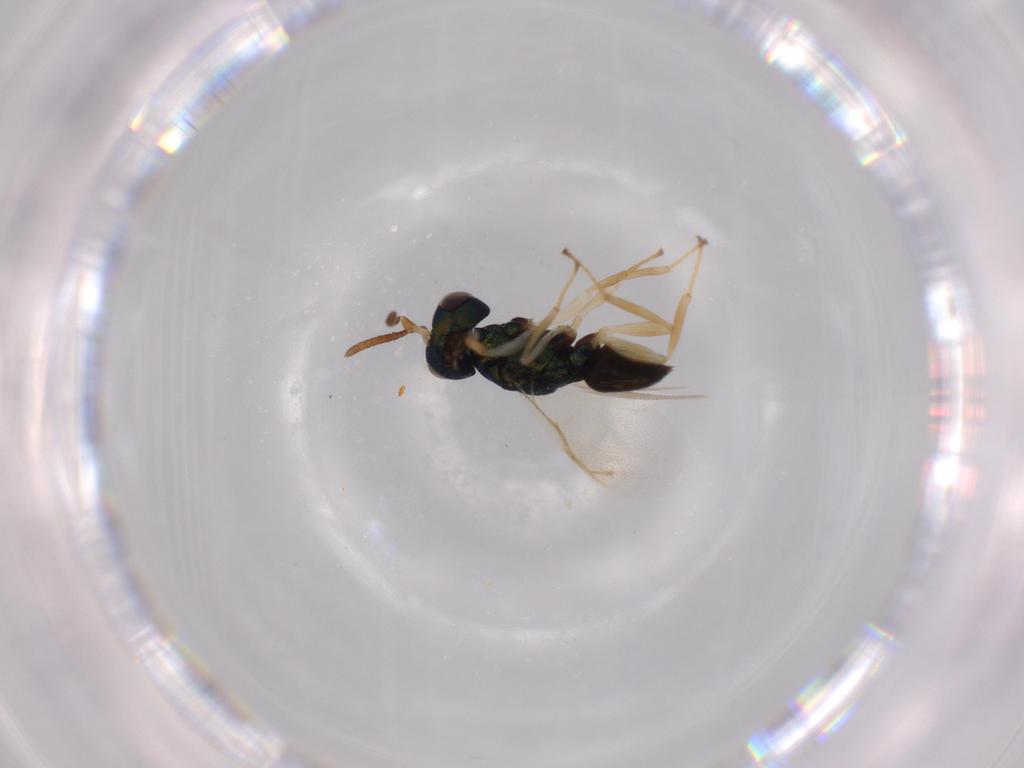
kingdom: Animalia
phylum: Arthropoda
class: Insecta
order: Hymenoptera
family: Pteromalidae
